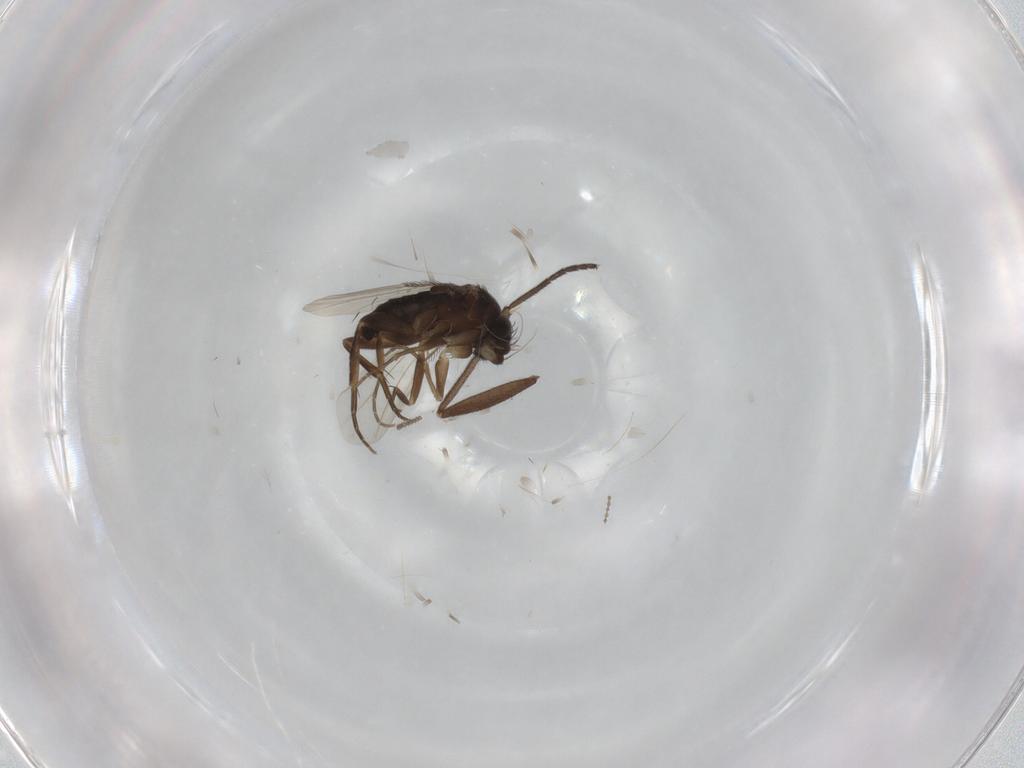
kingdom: Animalia
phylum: Arthropoda
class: Insecta
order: Diptera
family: Phoridae
